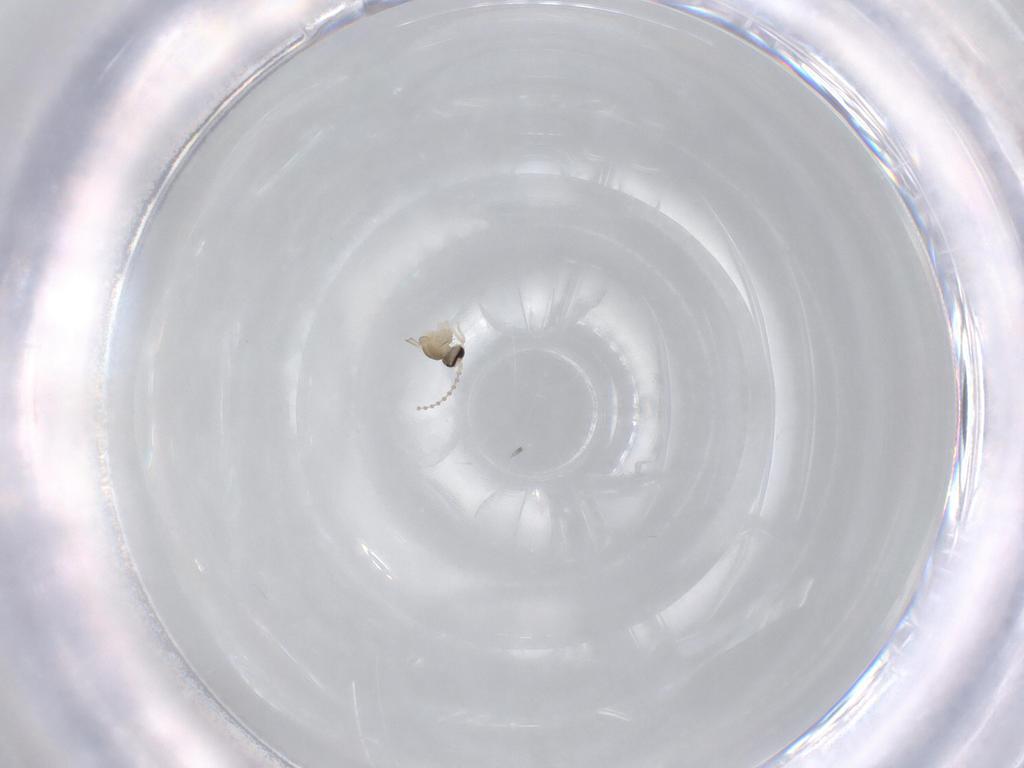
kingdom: Animalia
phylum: Arthropoda
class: Insecta
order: Diptera
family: Cecidomyiidae
